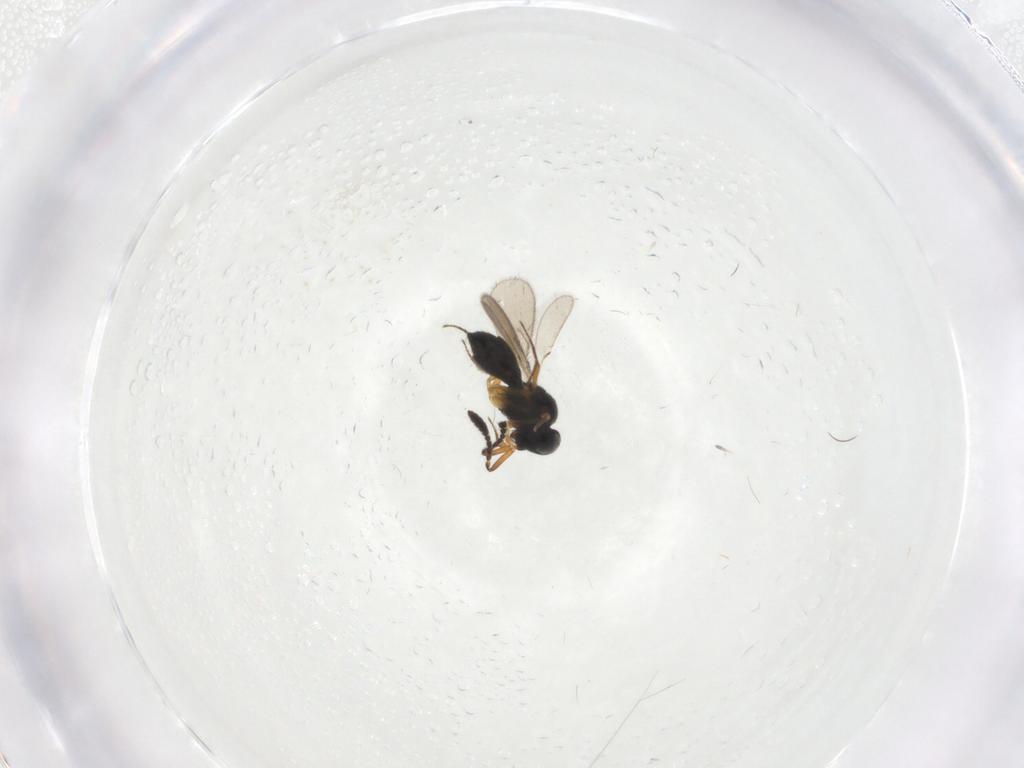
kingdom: Animalia
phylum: Arthropoda
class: Insecta
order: Hymenoptera
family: Scelionidae
